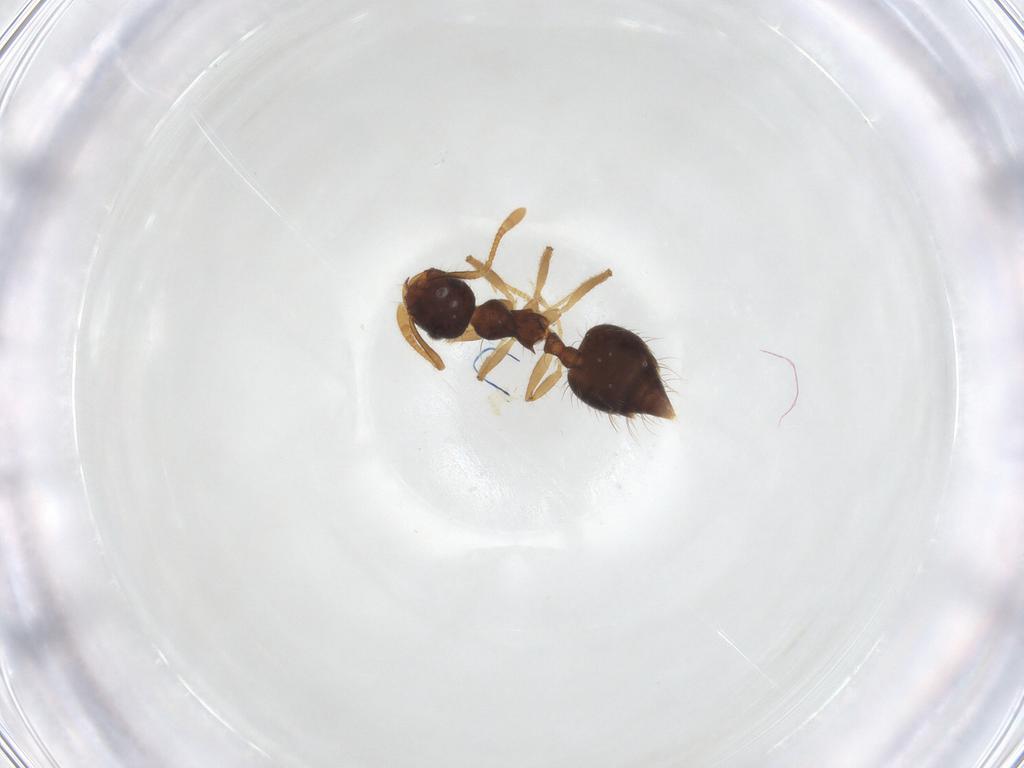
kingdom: Animalia
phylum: Arthropoda
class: Insecta
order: Hymenoptera
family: Formicidae
